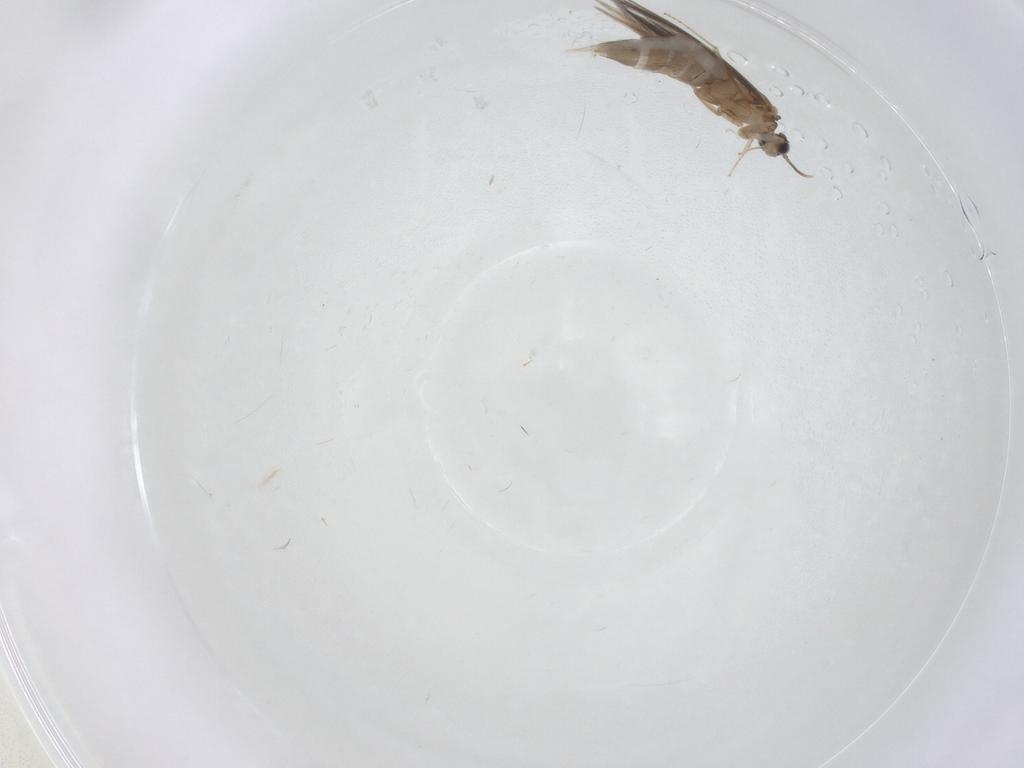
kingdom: Animalia
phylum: Arthropoda
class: Insecta
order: Trichoptera
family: Hydroptilidae
